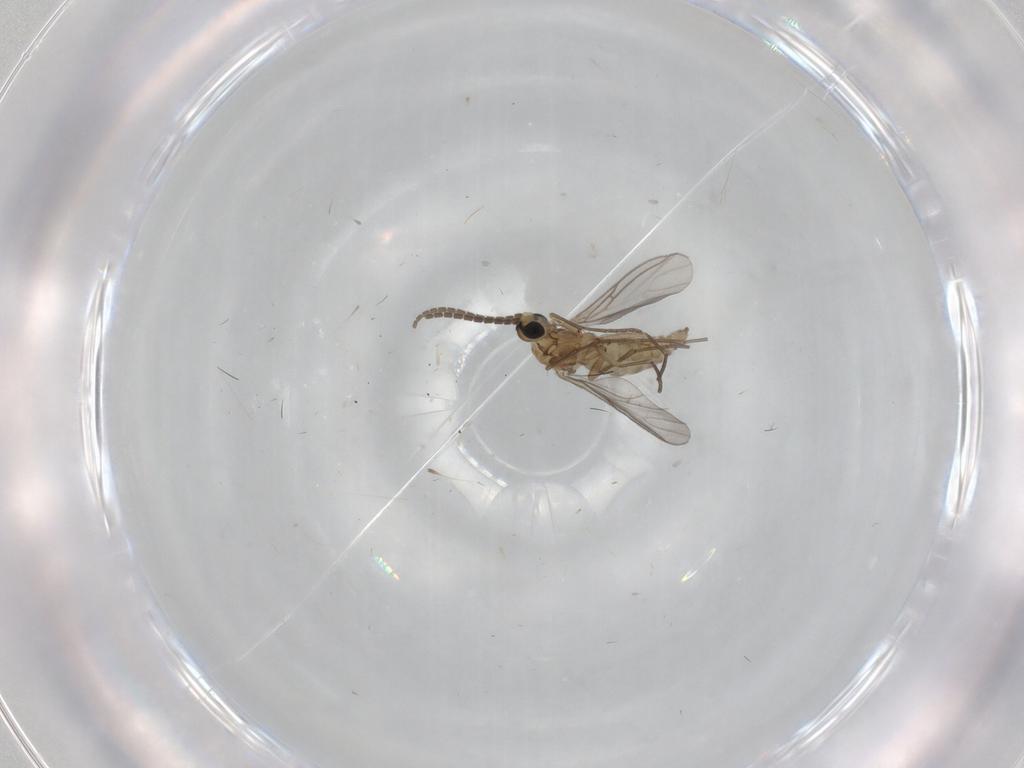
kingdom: Animalia
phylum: Arthropoda
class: Insecta
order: Diptera
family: Sciaridae
